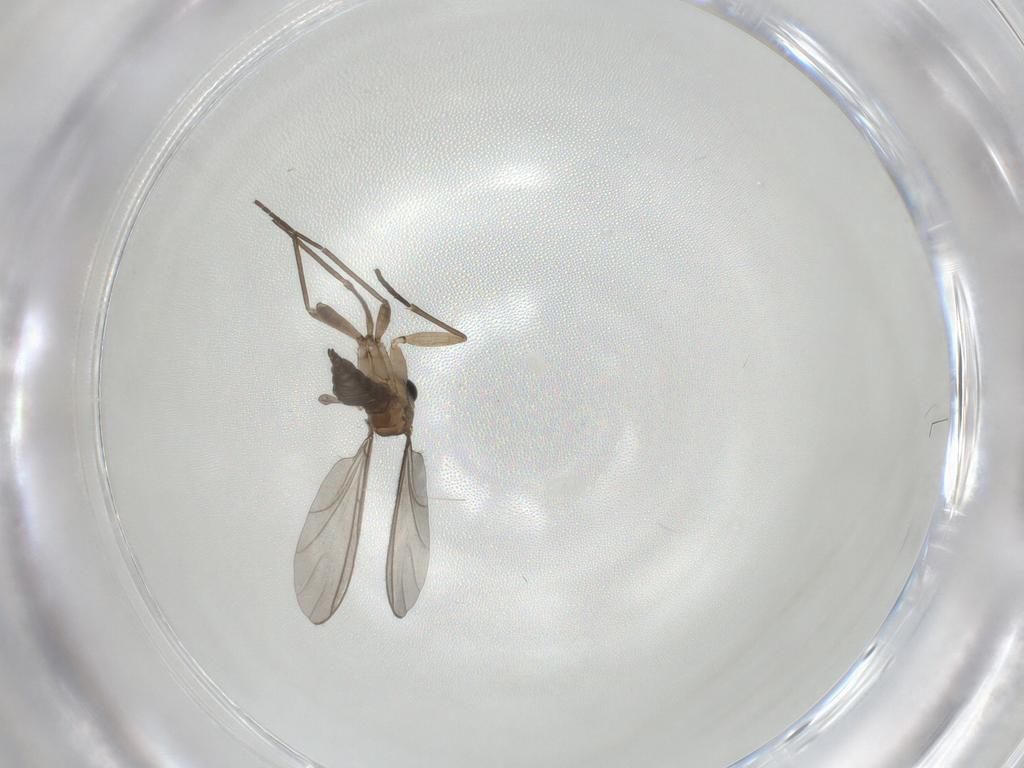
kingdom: Animalia
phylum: Arthropoda
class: Insecta
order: Diptera
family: Sciaridae
